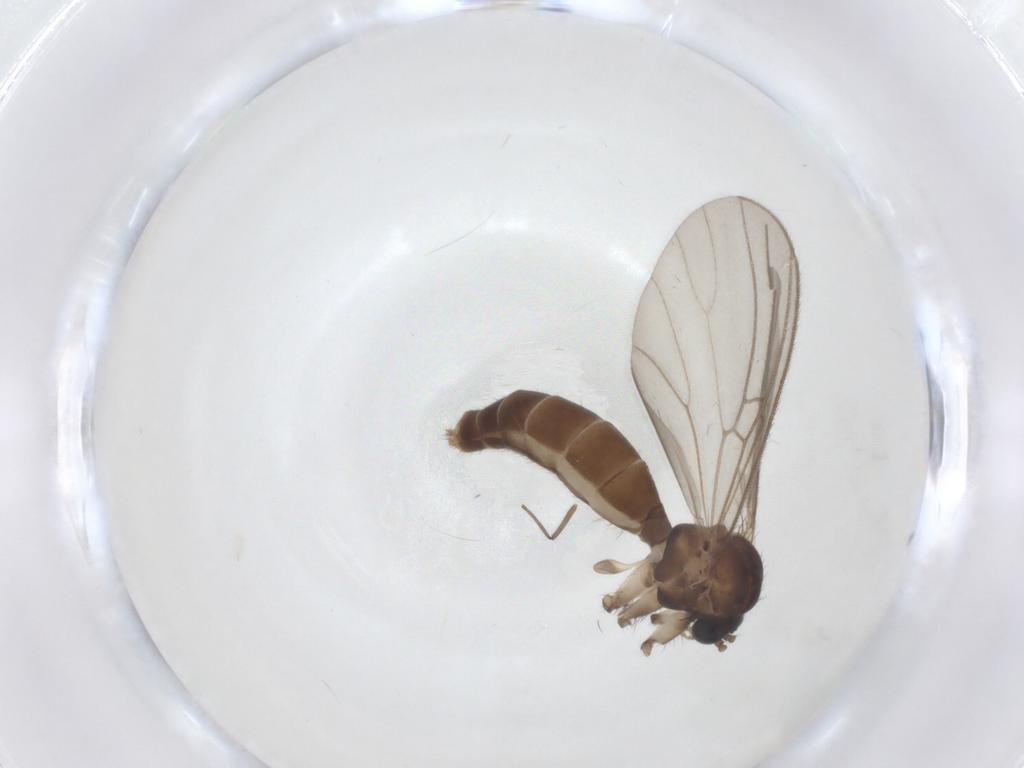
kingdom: Animalia
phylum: Arthropoda
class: Insecta
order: Diptera
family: Mycetophilidae
